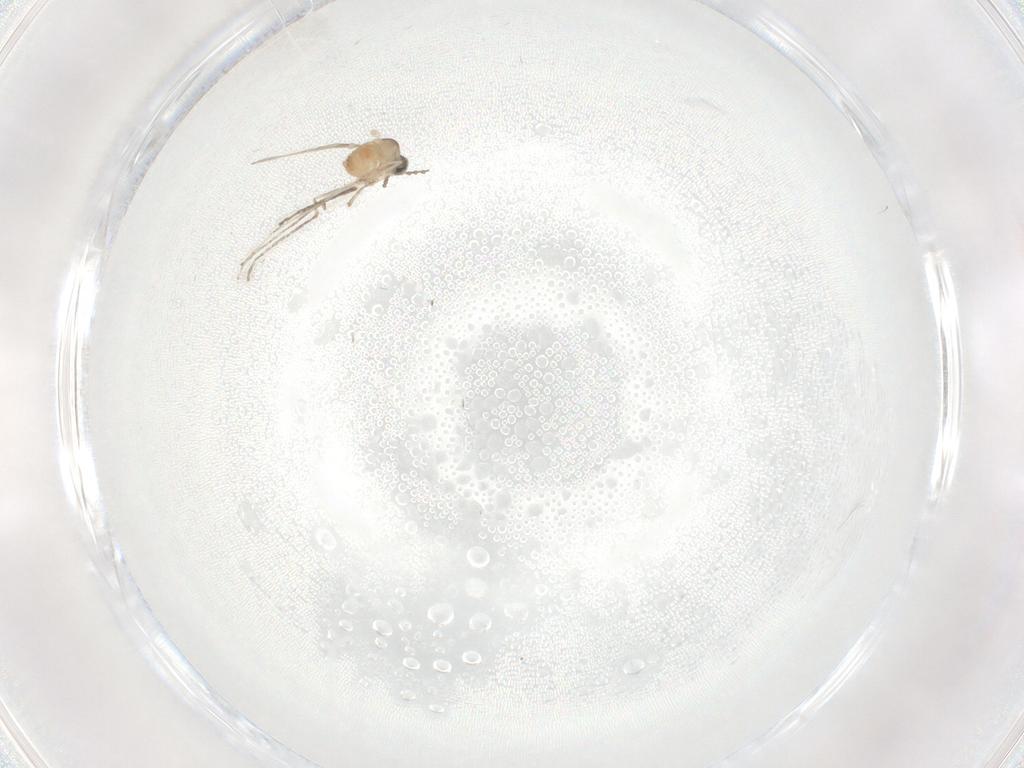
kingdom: Animalia
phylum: Arthropoda
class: Insecta
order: Diptera
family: Cecidomyiidae
